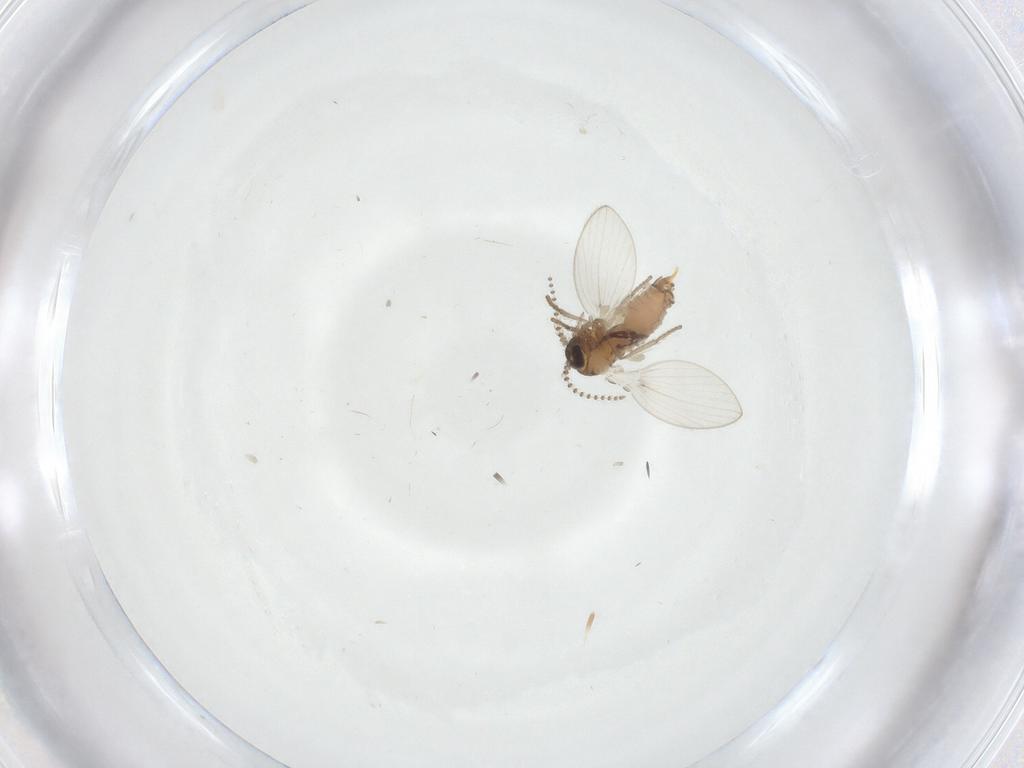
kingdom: Animalia
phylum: Arthropoda
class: Insecta
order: Diptera
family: Psychodidae
